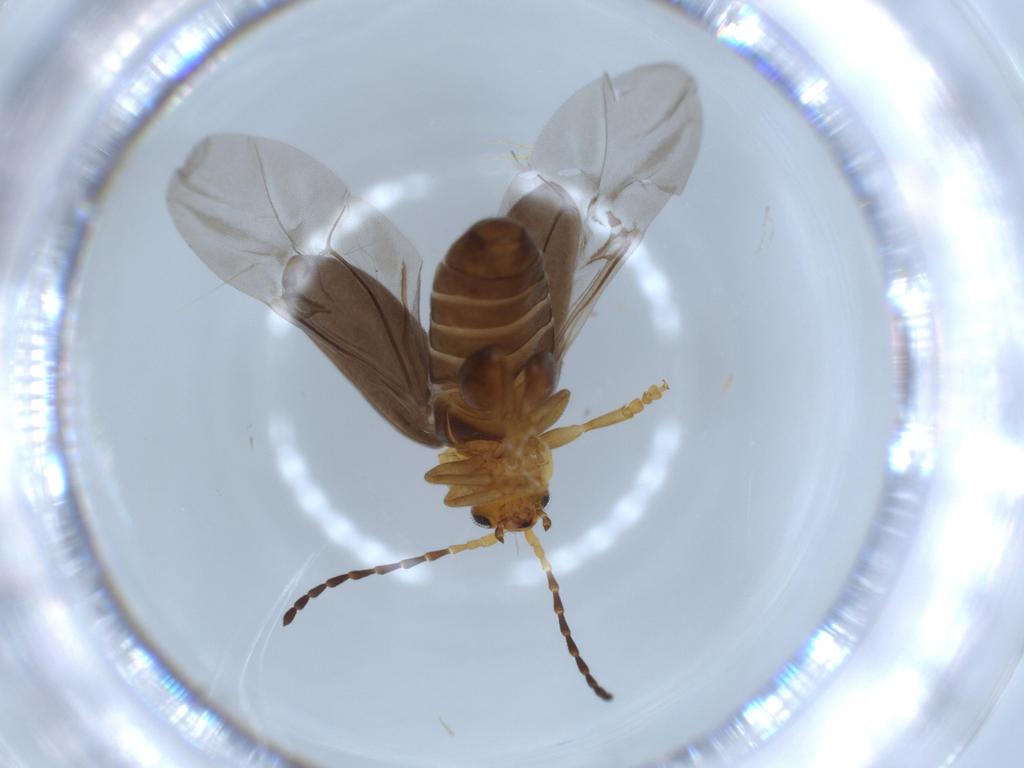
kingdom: Animalia
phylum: Arthropoda
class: Insecta
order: Coleoptera
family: Chrysomelidae
